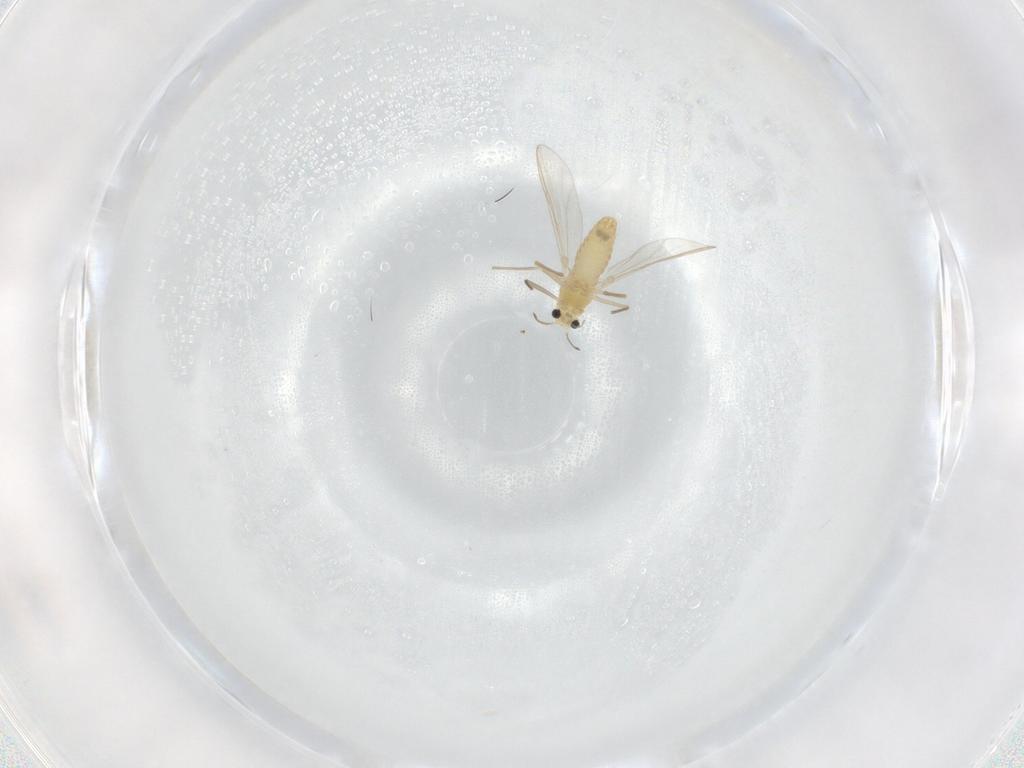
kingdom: Animalia
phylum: Arthropoda
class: Insecta
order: Diptera
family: Chironomidae
